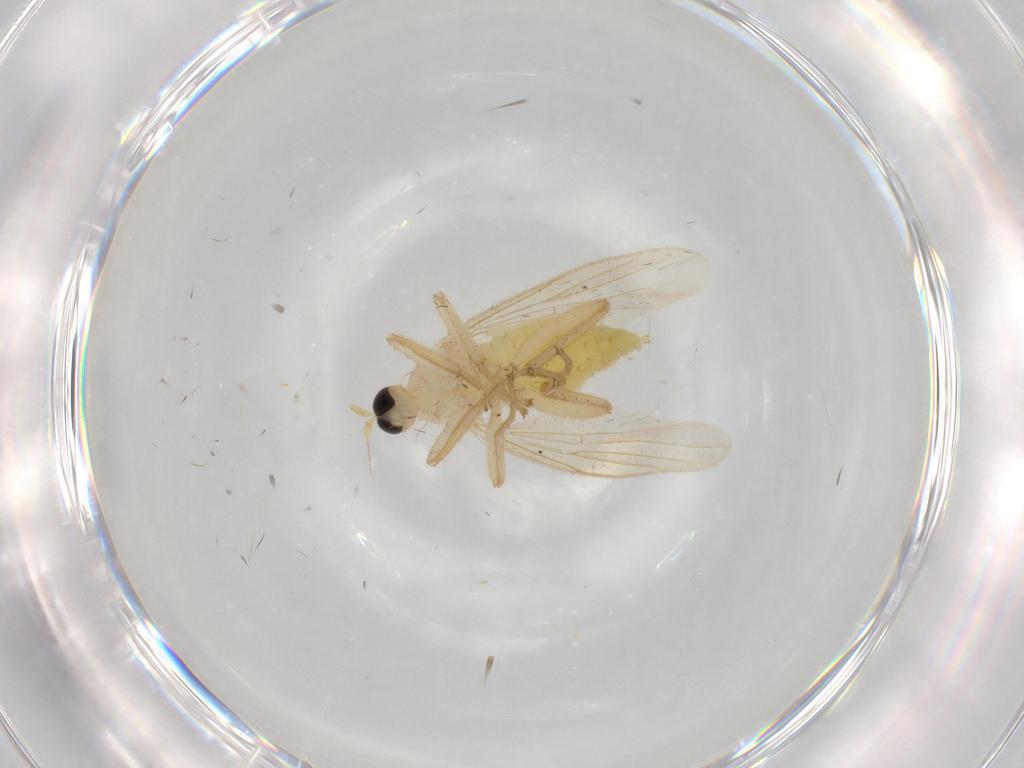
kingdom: Animalia
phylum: Arthropoda
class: Insecta
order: Diptera
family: Hybotidae
